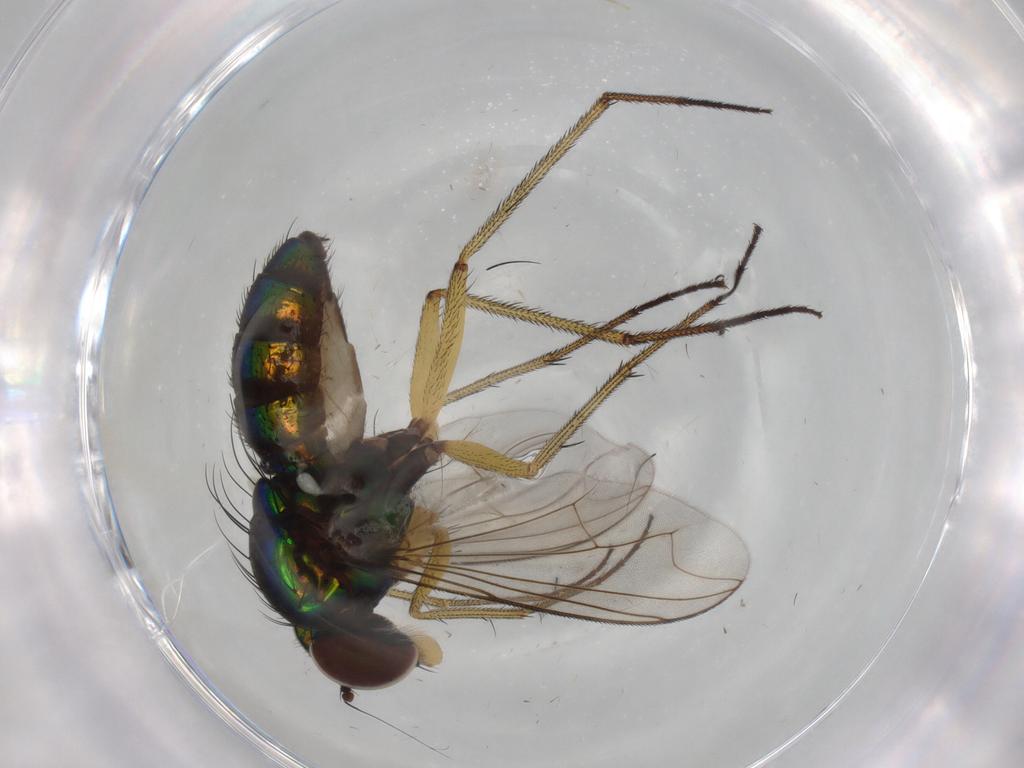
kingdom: Animalia
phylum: Arthropoda
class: Insecta
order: Diptera
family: Dolichopodidae
